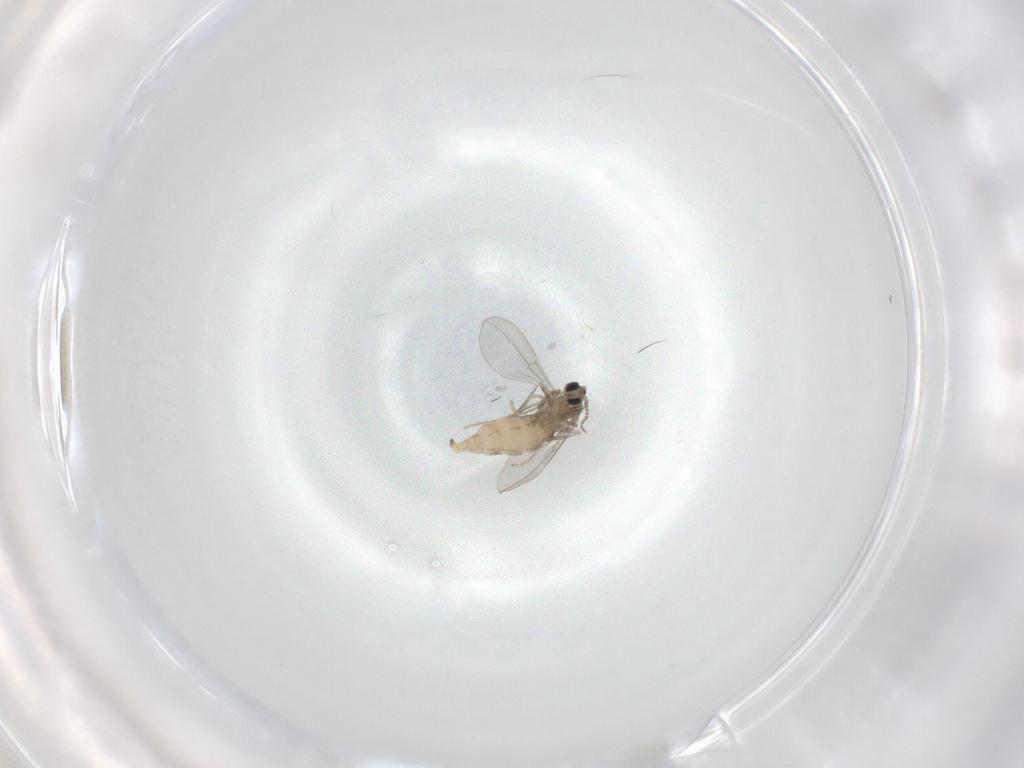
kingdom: Animalia
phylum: Arthropoda
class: Insecta
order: Diptera
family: Cecidomyiidae
